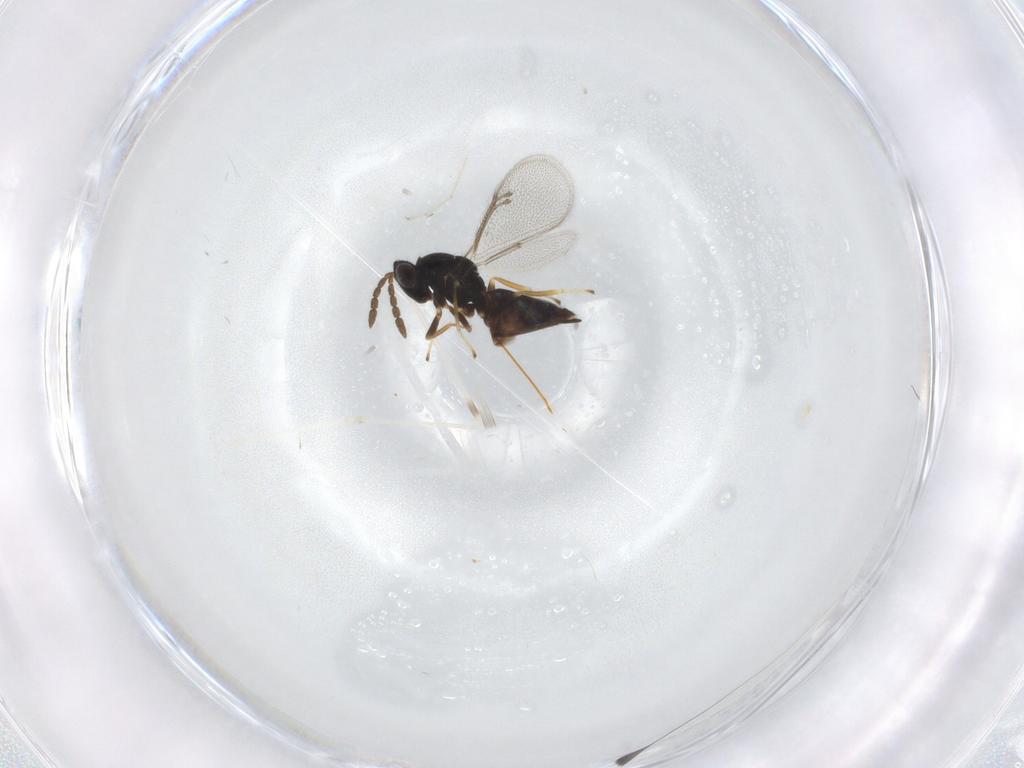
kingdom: Animalia
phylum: Arthropoda
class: Insecta
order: Hymenoptera
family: Eulophidae
